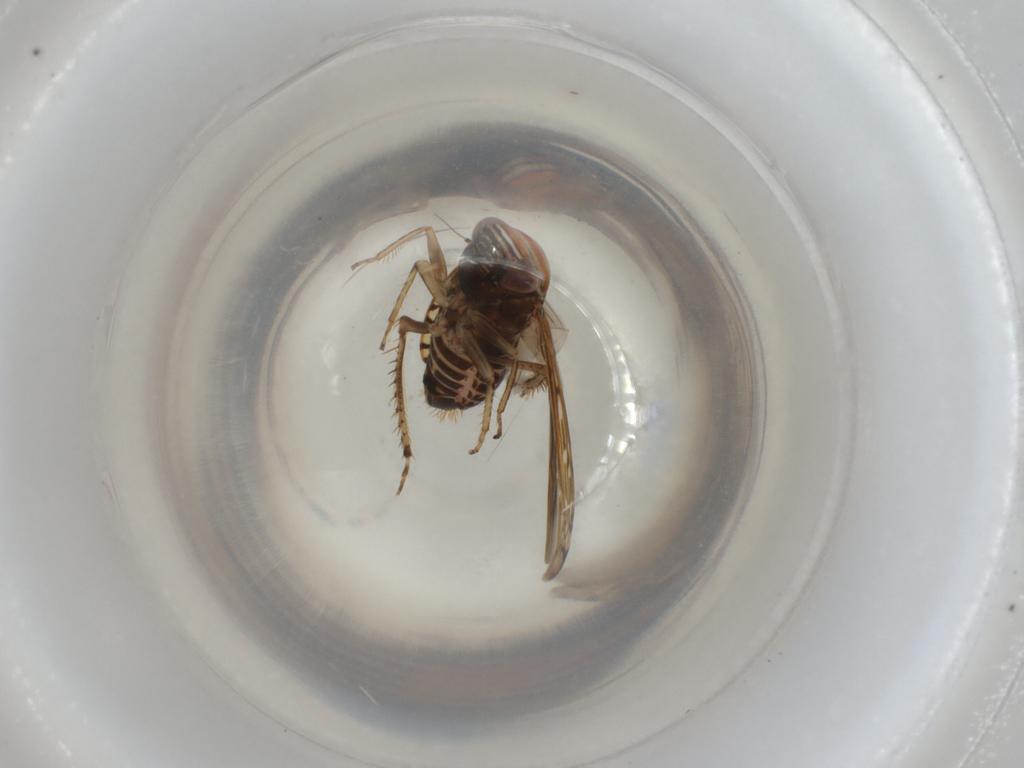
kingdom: Animalia
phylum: Arthropoda
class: Insecta
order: Hemiptera
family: Cicadellidae
